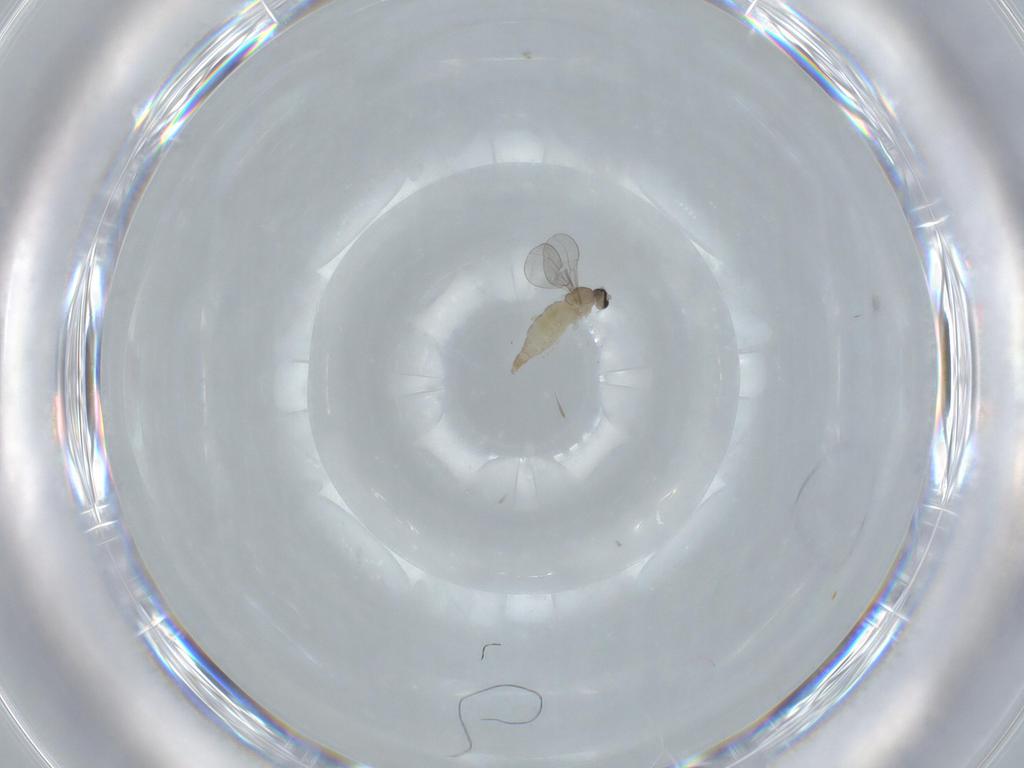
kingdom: Animalia
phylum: Arthropoda
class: Insecta
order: Diptera
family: Cecidomyiidae
